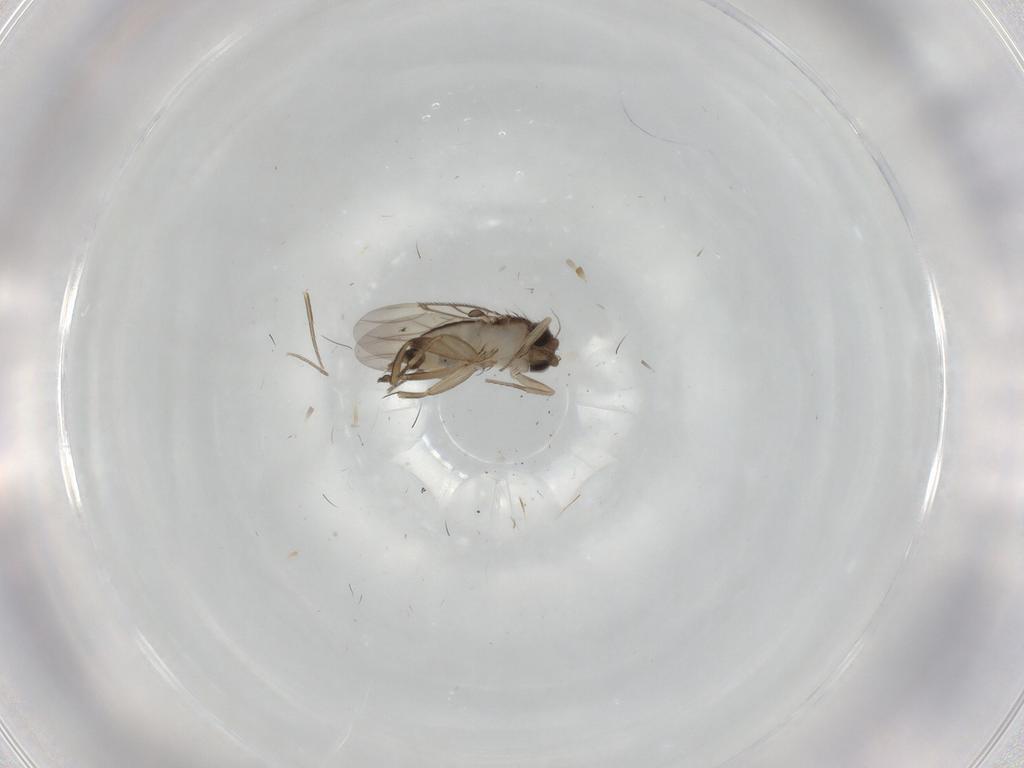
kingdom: Animalia
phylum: Arthropoda
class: Insecta
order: Diptera
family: Phoridae
